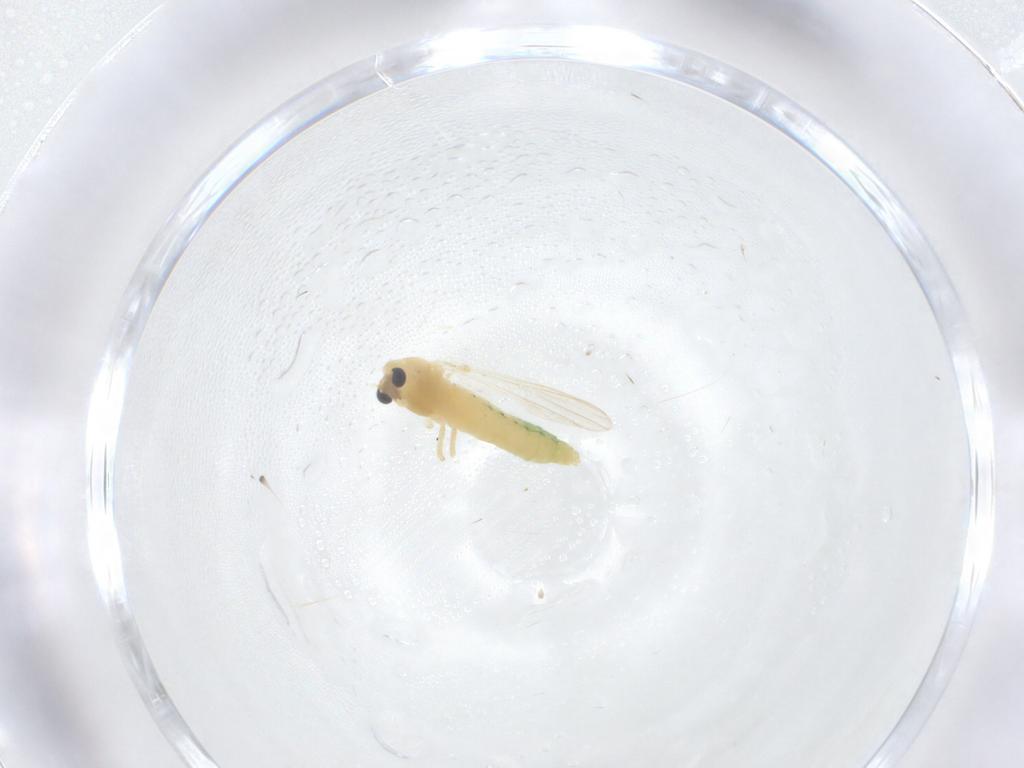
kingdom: Animalia
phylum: Arthropoda
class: Insecta
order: Diptera
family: Chironomidae
